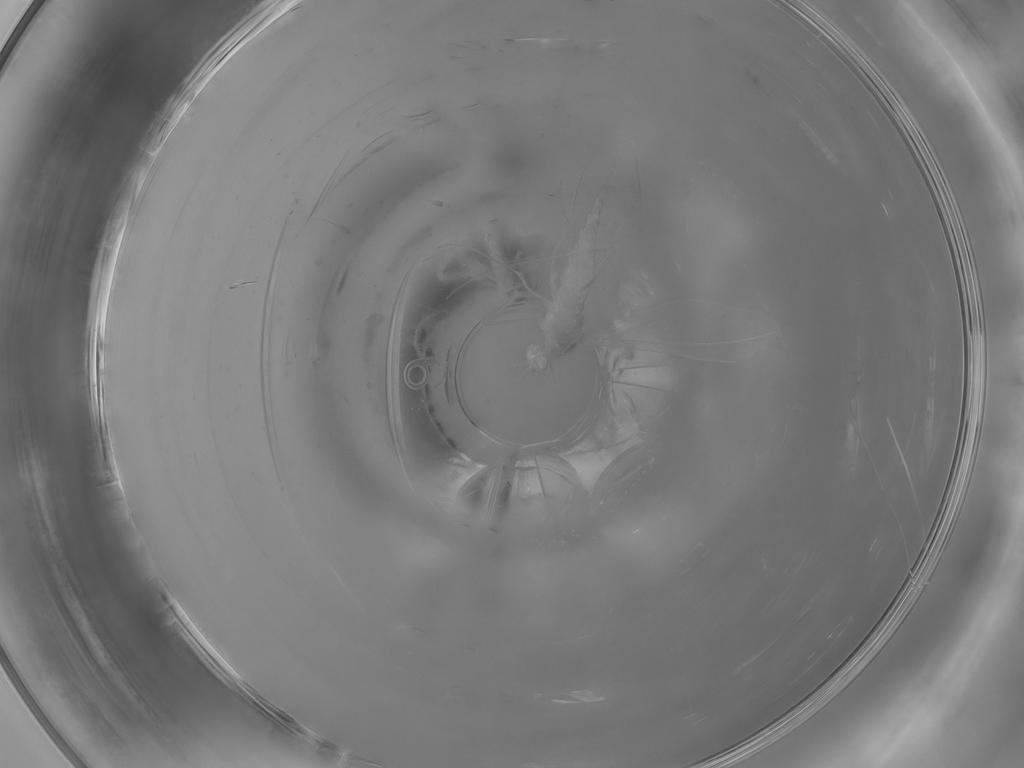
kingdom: Animalia
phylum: Arthropoda
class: Insecta
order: Diptera
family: Cecidomyiidae
